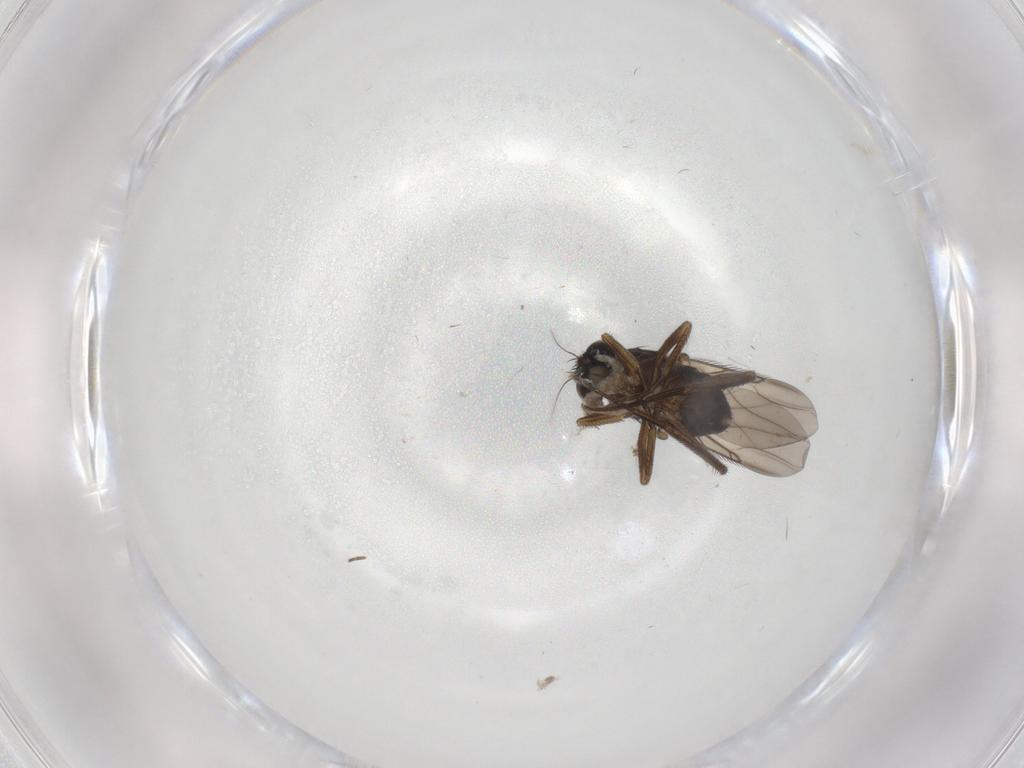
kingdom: Animalia
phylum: Arthropoda
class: Insecta
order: Diptera
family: Cecidomyiidae
